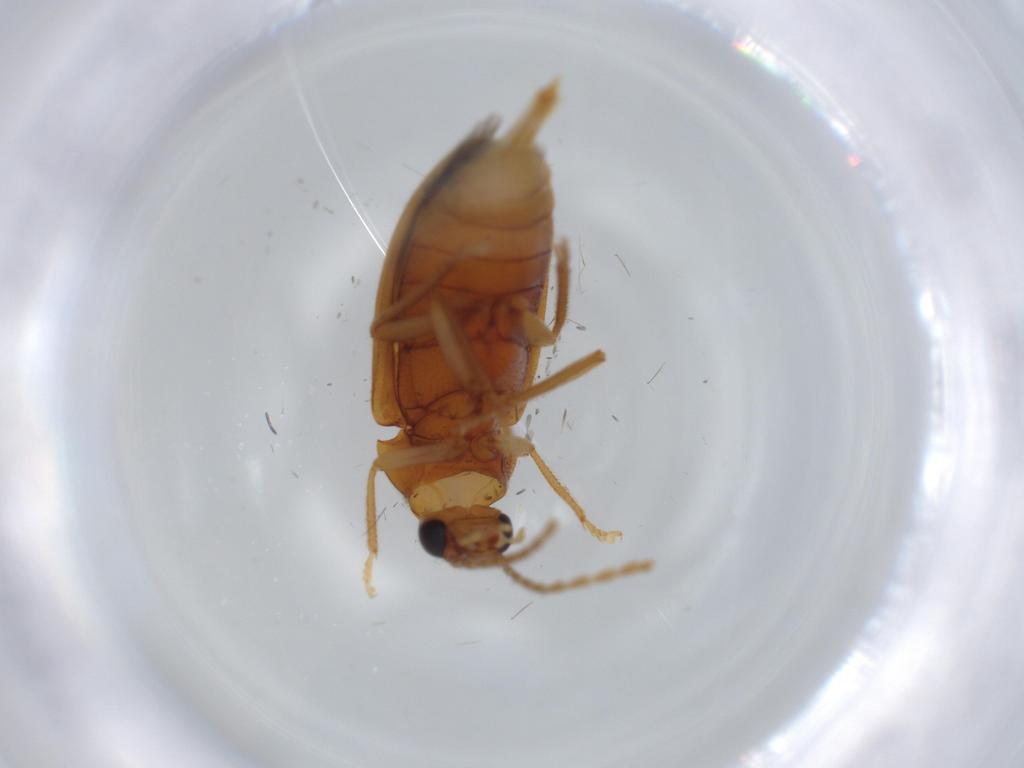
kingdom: Animalia
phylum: Arthropoda
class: Insecta
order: Coleoptera
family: Ptilodactylidae
